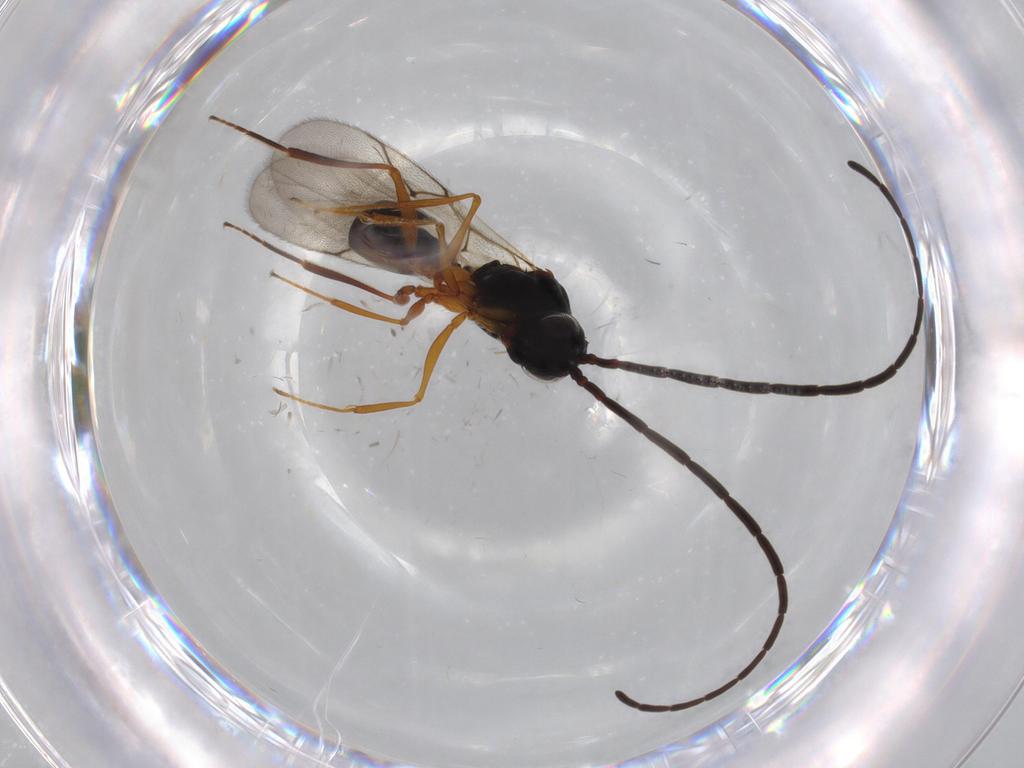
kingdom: Animalia
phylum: Arthropoda
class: Insecta
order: Hymenoptera
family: Figitidae
